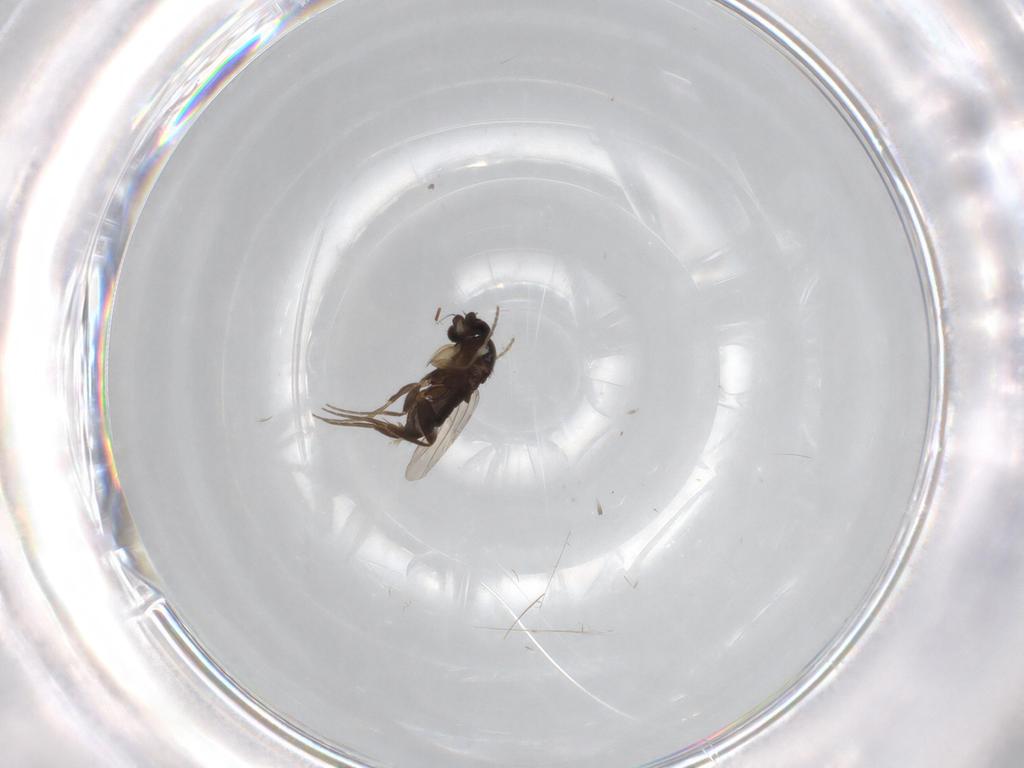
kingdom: Animalia
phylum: Arthropoda
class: Insecta
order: Diptera
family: Phoridae
